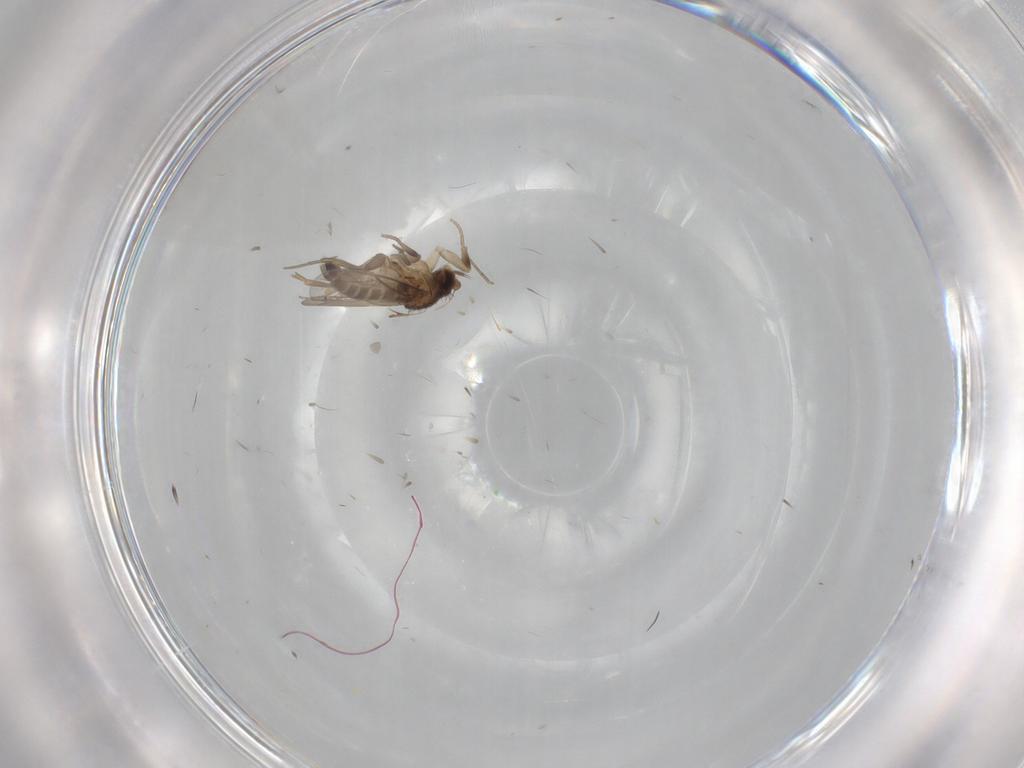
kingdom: Animalia
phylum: Arthropoda
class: Insecta
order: Diptera
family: Phoridae
